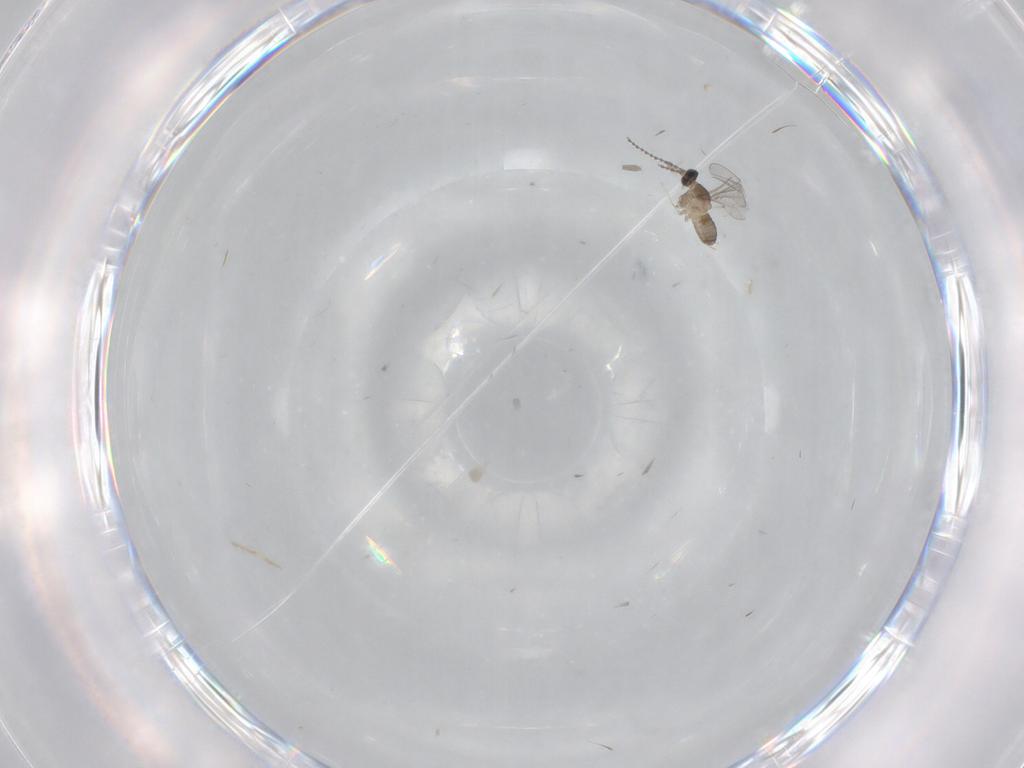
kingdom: Animalia
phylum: Arthropoda
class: Insecta
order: Diptera
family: Cecidomyiidae
